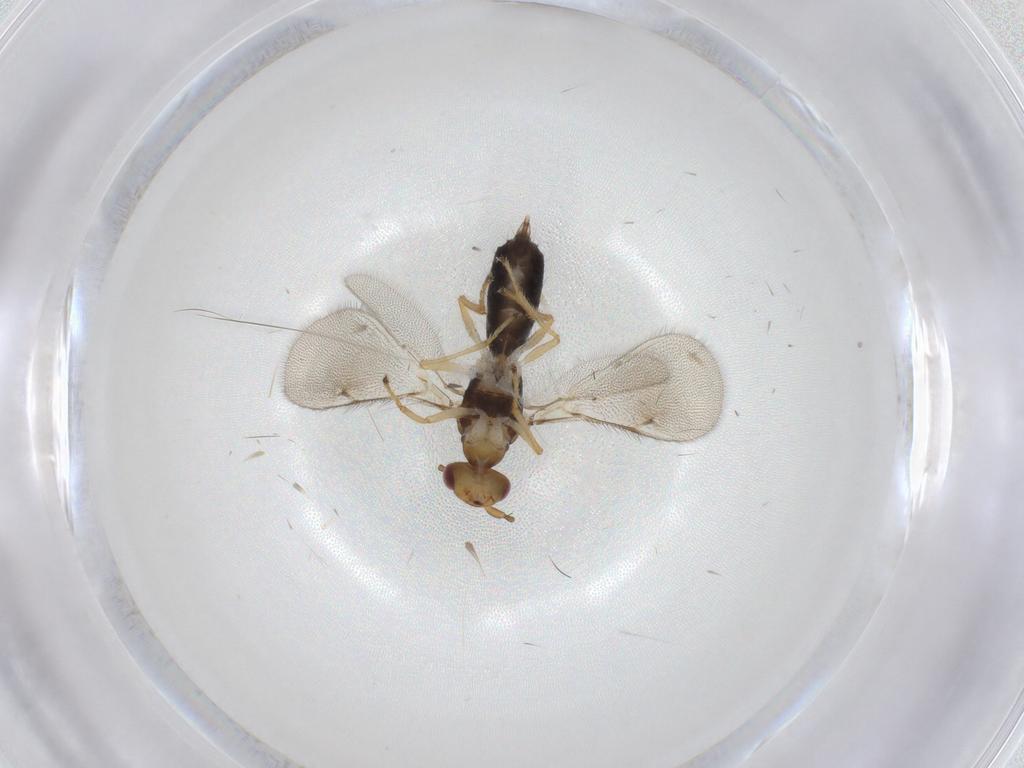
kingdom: Animalia
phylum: Arthropoda
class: Insecta
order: Hymenoptera
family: Eulophidae
